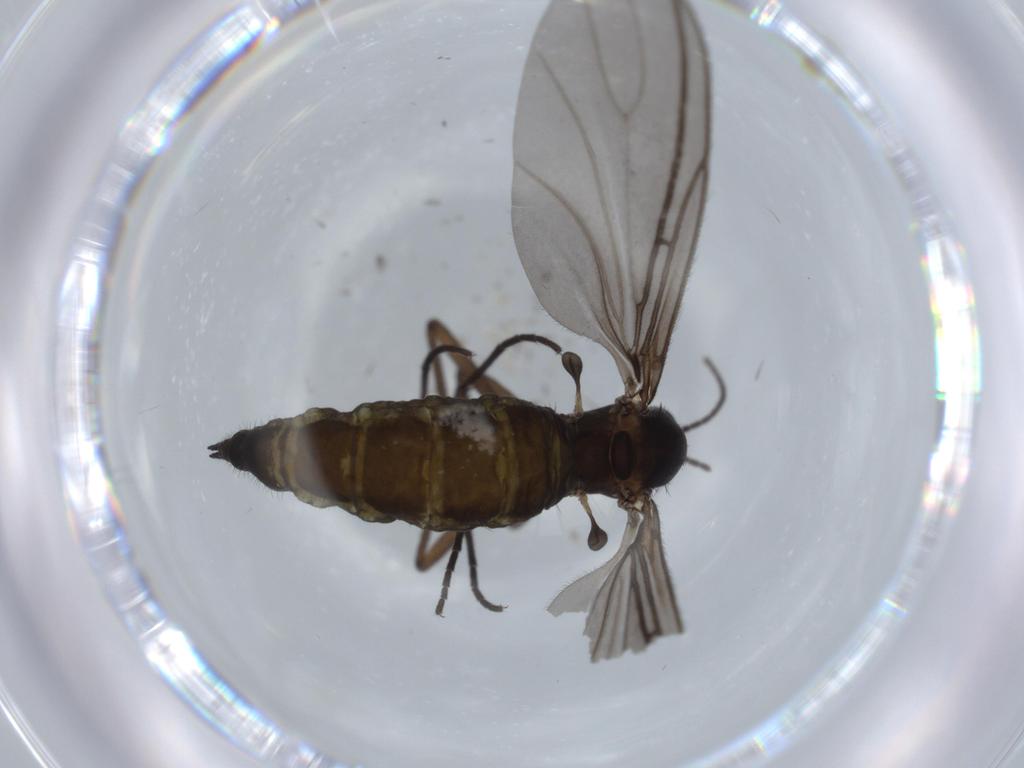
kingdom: Animalia
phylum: Arthropoda
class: Insecta
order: Diptera
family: Sciaridae
